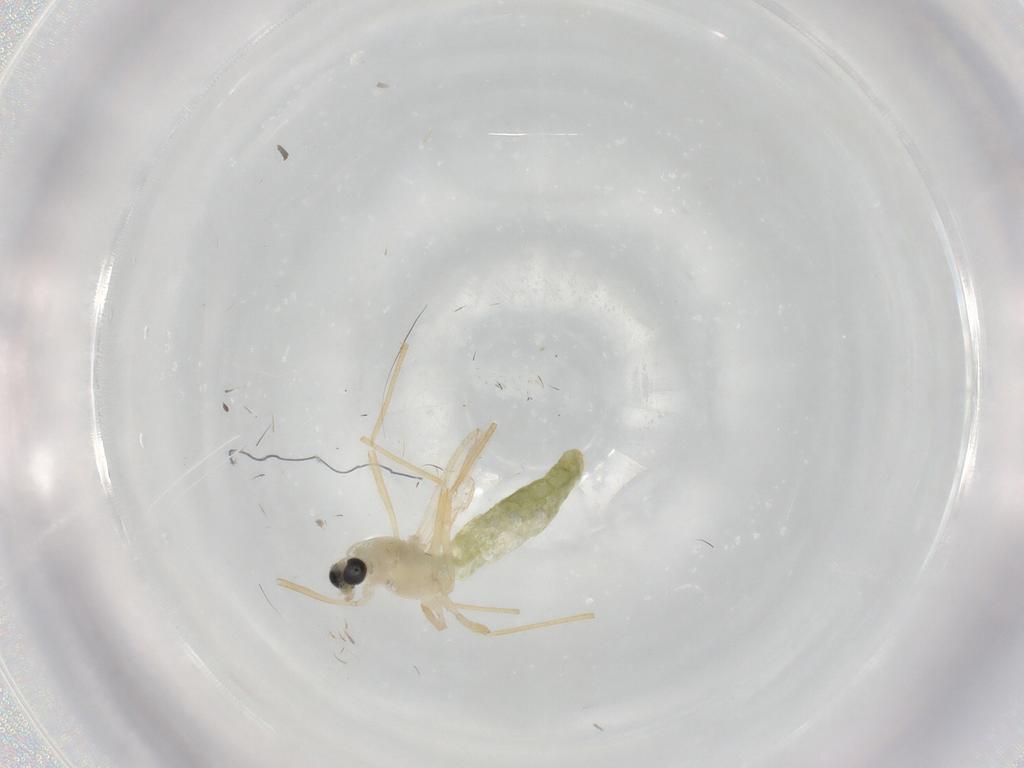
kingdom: Animalia
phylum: Arthropoda
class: Insecta
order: Diptera
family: Chironomidae
